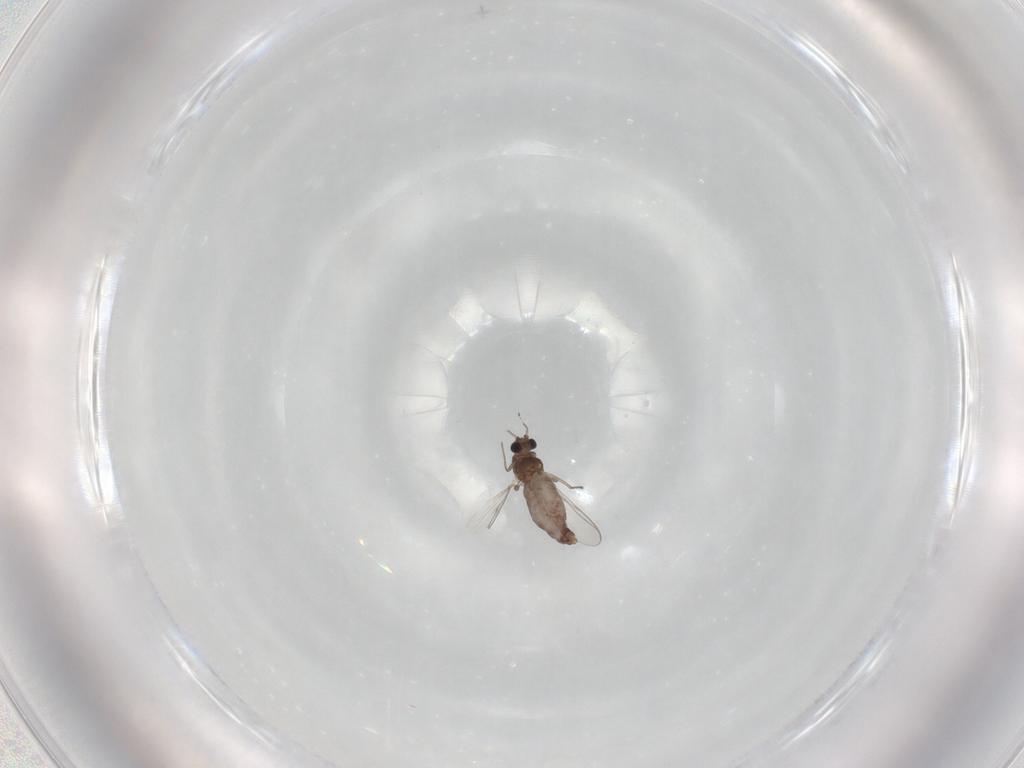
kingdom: Animalia
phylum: Arthropoda
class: Insecta
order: Diptera
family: Chironomidae
